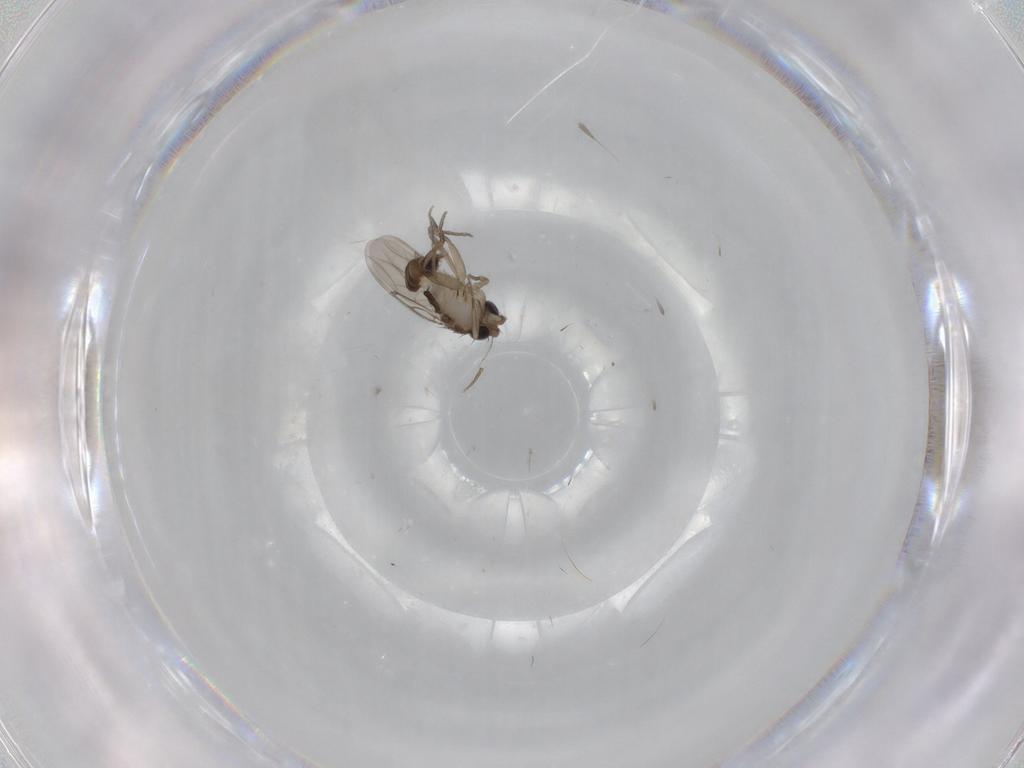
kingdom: Animalia
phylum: Arthropoda
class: Insecta
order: Diptera
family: Phoridae
